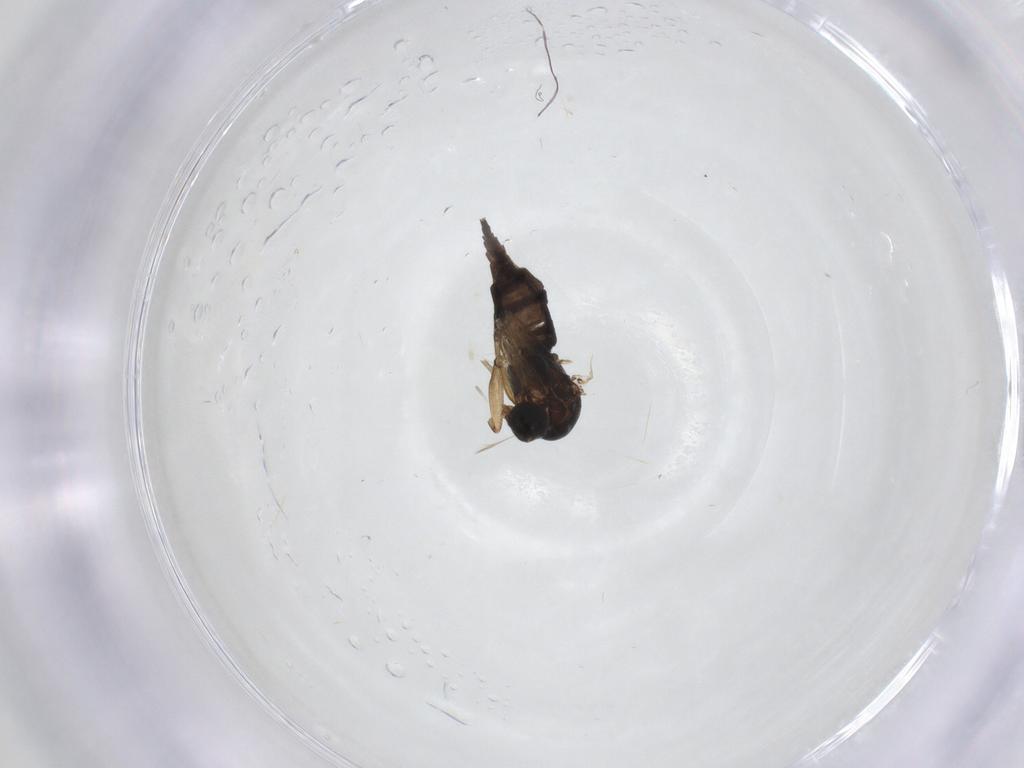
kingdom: Animalia
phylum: Arthropoda
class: Insecta
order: Diptera
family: Sciaridae
